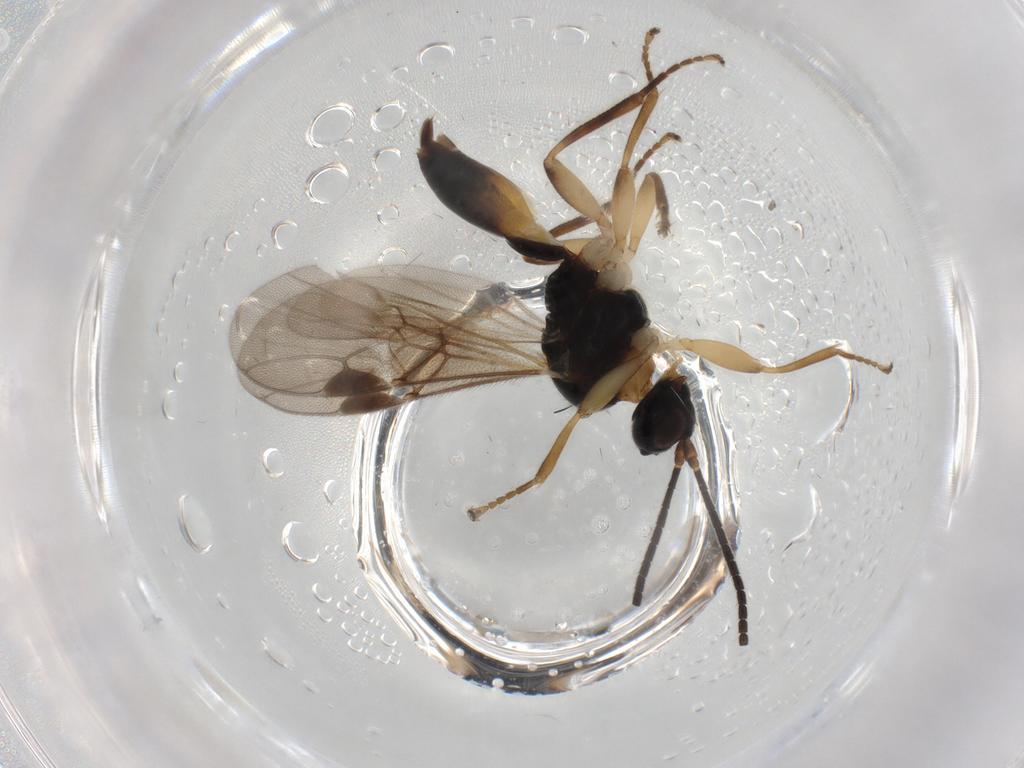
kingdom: Animalia
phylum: Arthropoda
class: Insecta
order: Hymenoptera
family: Braconidae
